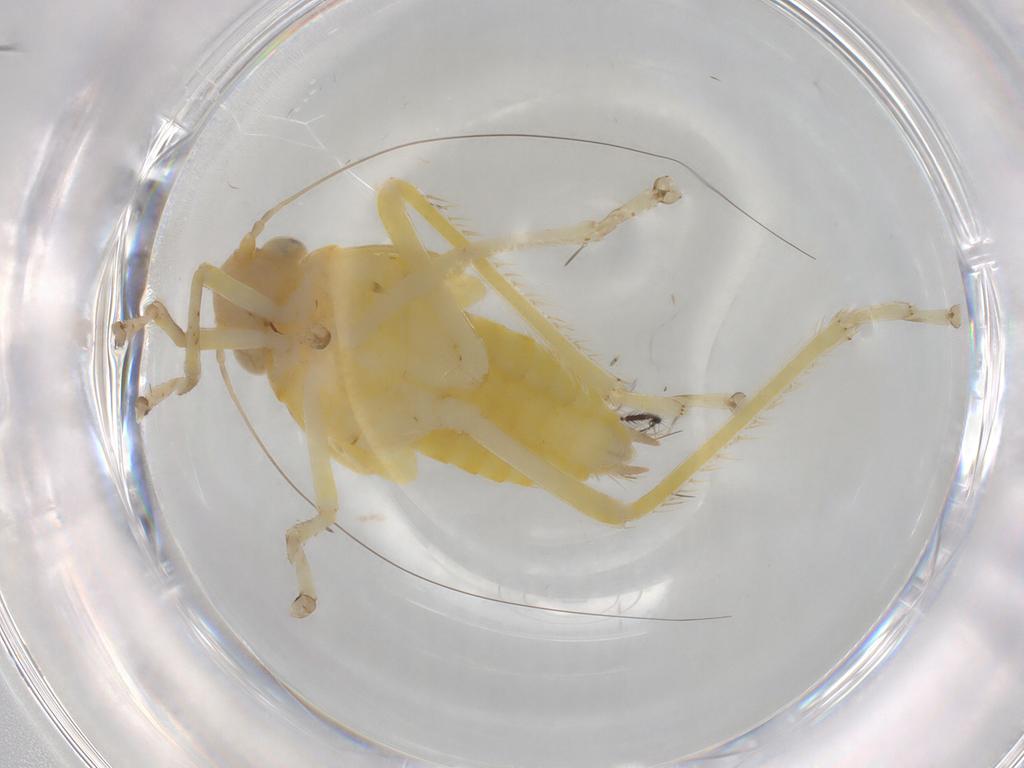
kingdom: Animalia
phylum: Arthropoda
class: Insecta
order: Hemiptera
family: Cicadellidae
